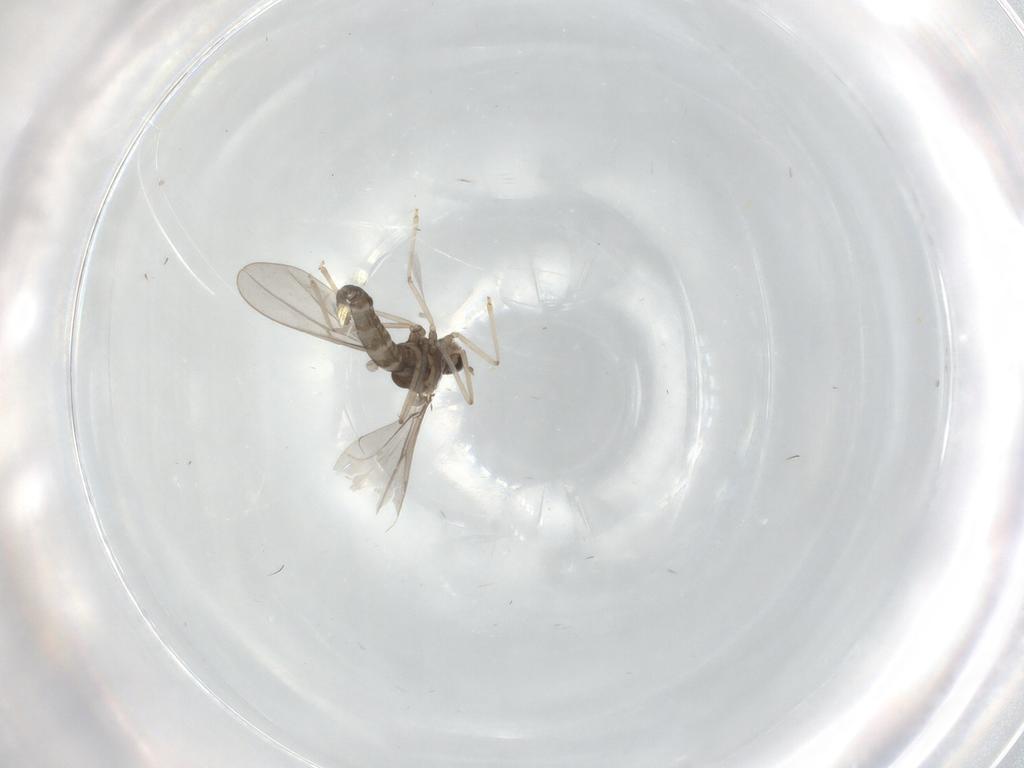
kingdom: Animalia
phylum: Arthropoda
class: Insecta
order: Diptera
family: Cecidomyiidae
